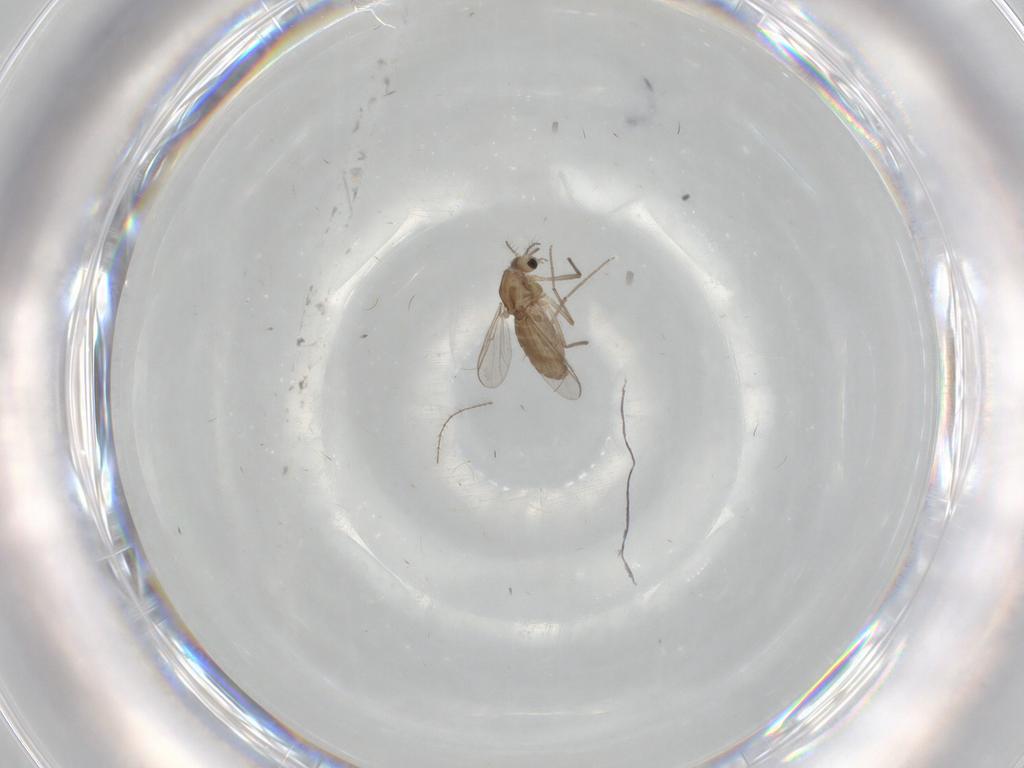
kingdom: Animalia
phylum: Arthropoda
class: Insecta
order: Diptera
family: Chironomidae
